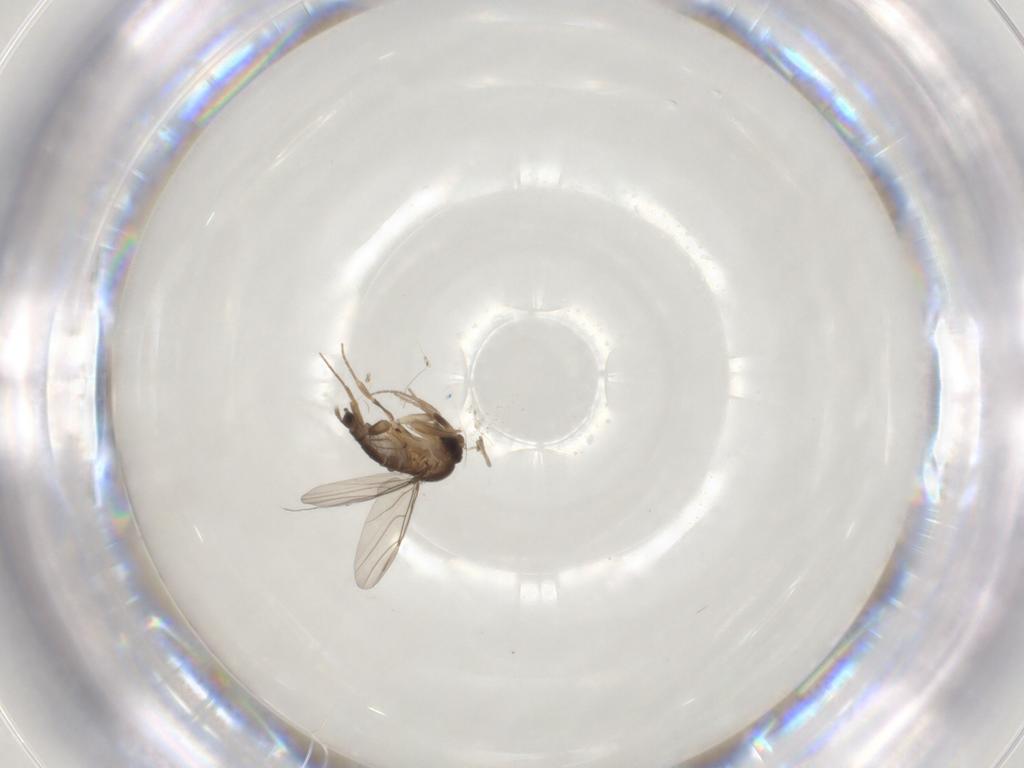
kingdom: Animalia
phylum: Arthropoda
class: Insecta
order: Diptera
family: Phoridae
